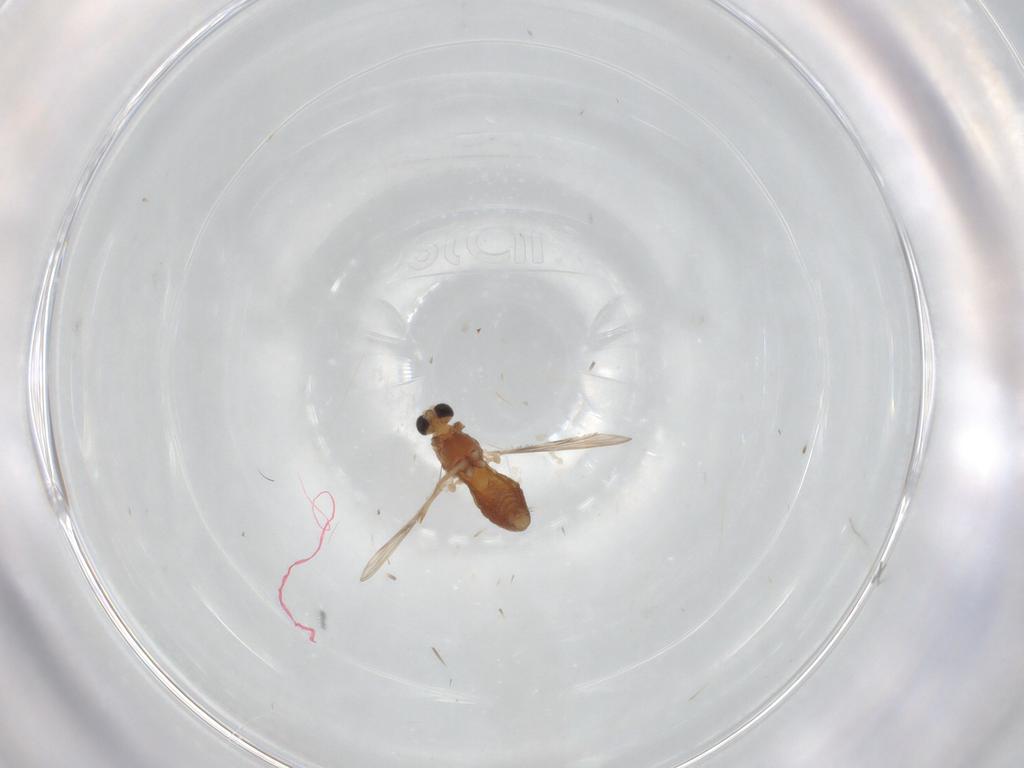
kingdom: Animalia
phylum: Arthropoda
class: Insecta
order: Diptera
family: Chironomidae
